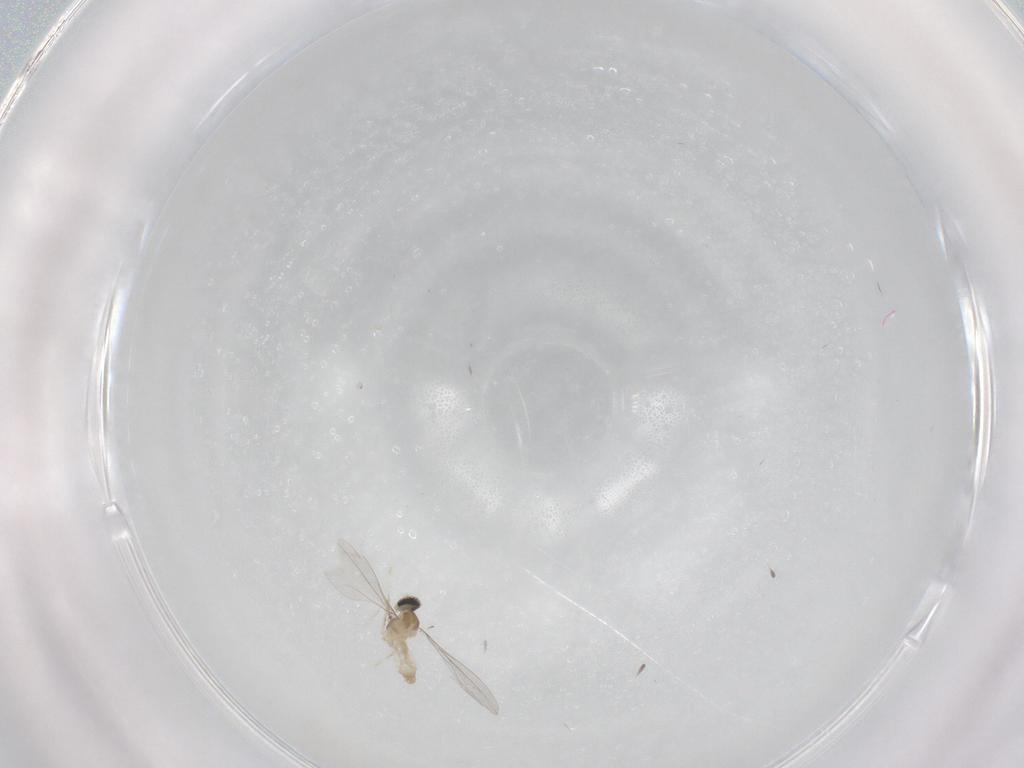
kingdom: Animalia
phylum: Arthropoda
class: Insecta
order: Diptera
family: Cecidomyiidae
